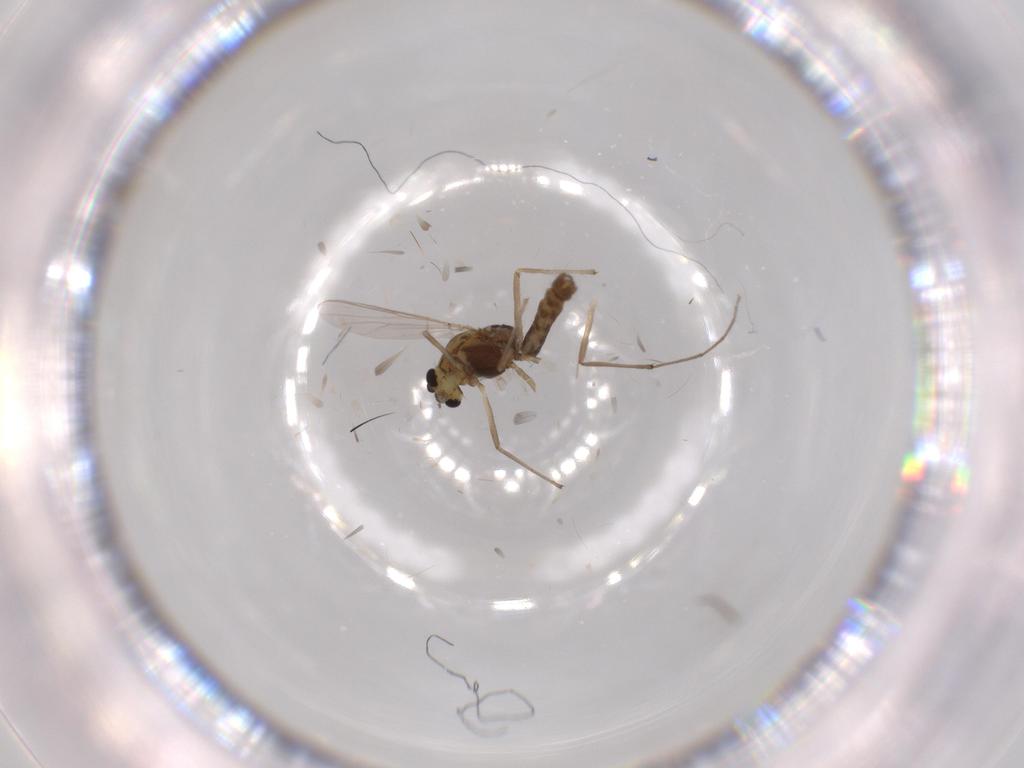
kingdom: Animalia
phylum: Arthropoda
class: Insecta
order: Diptera
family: Chironomidae
